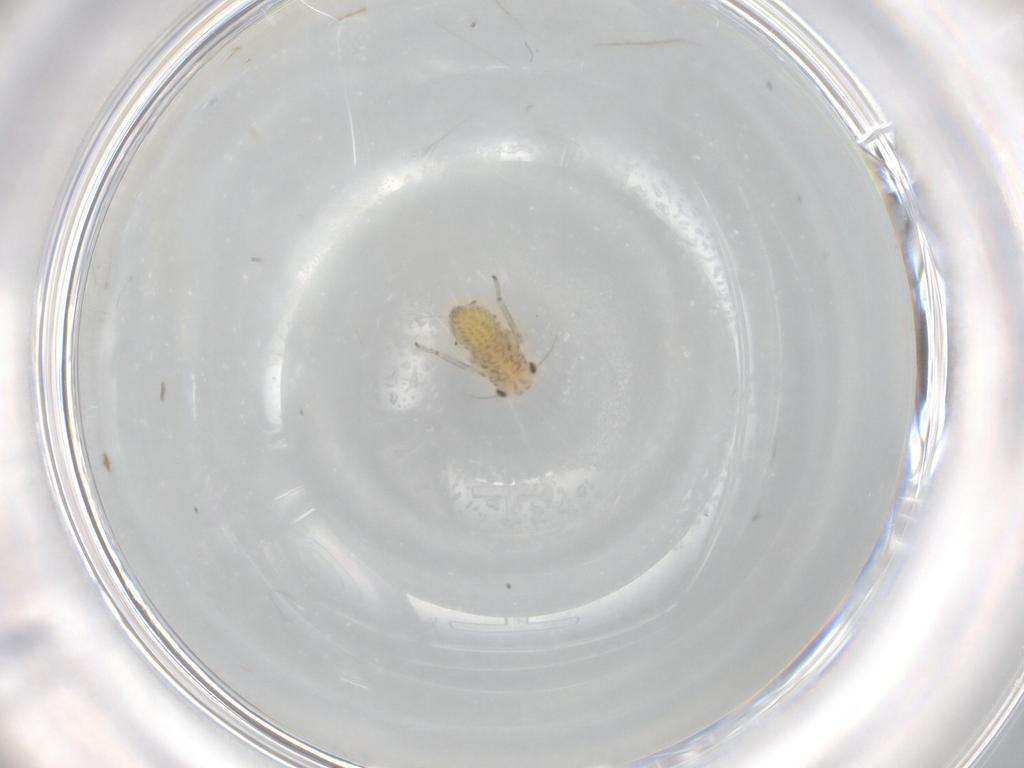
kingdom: Animalia
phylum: Arthropoda
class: Insecta
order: Hemiptera
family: Cicadellidae
